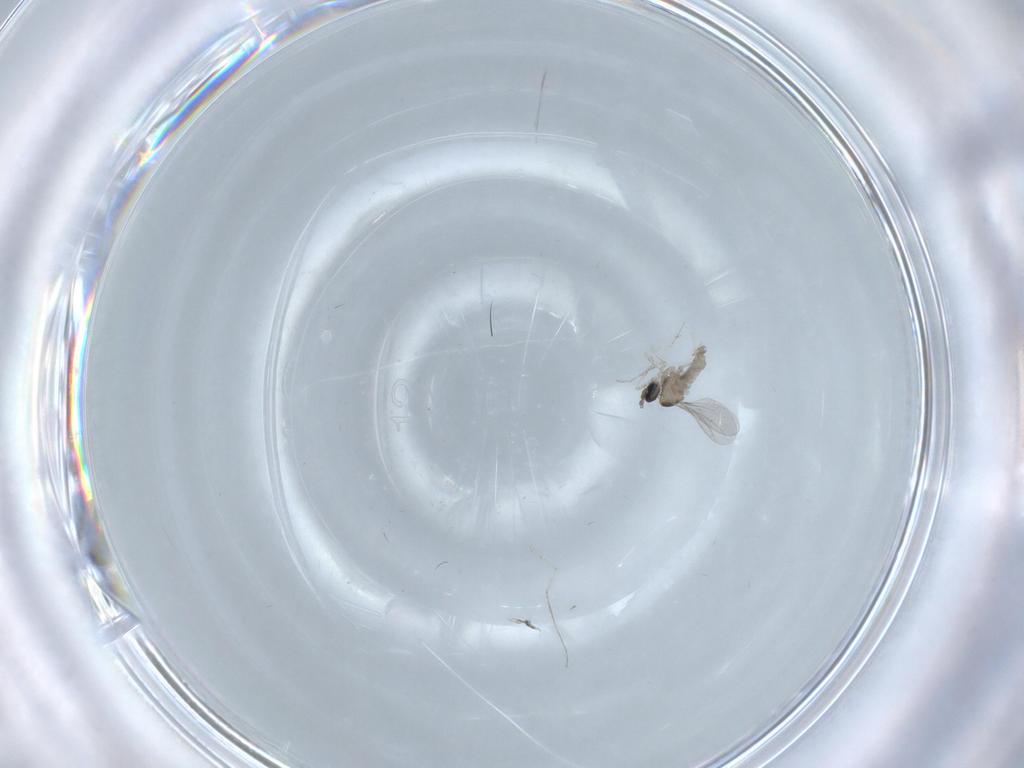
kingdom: Animalia
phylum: Arthropoda
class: Insecta
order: Diptera
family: Cecidomyiidae
